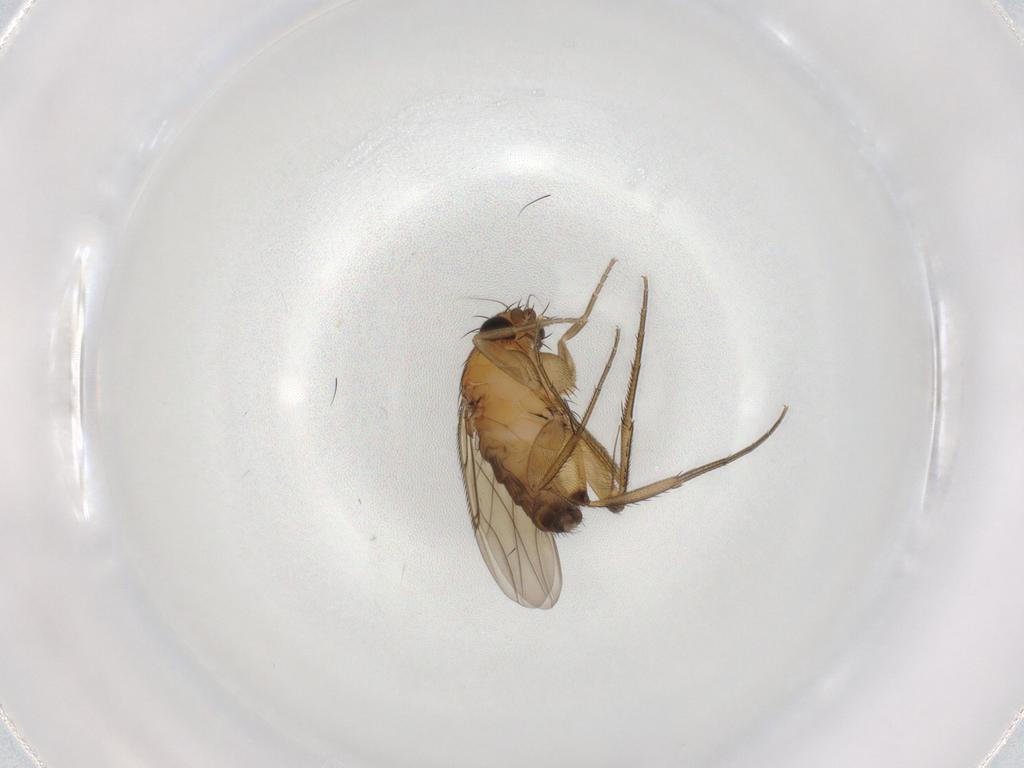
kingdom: Animalia
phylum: Arthropoda
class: Insecta
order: Diptera
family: Phoridae
